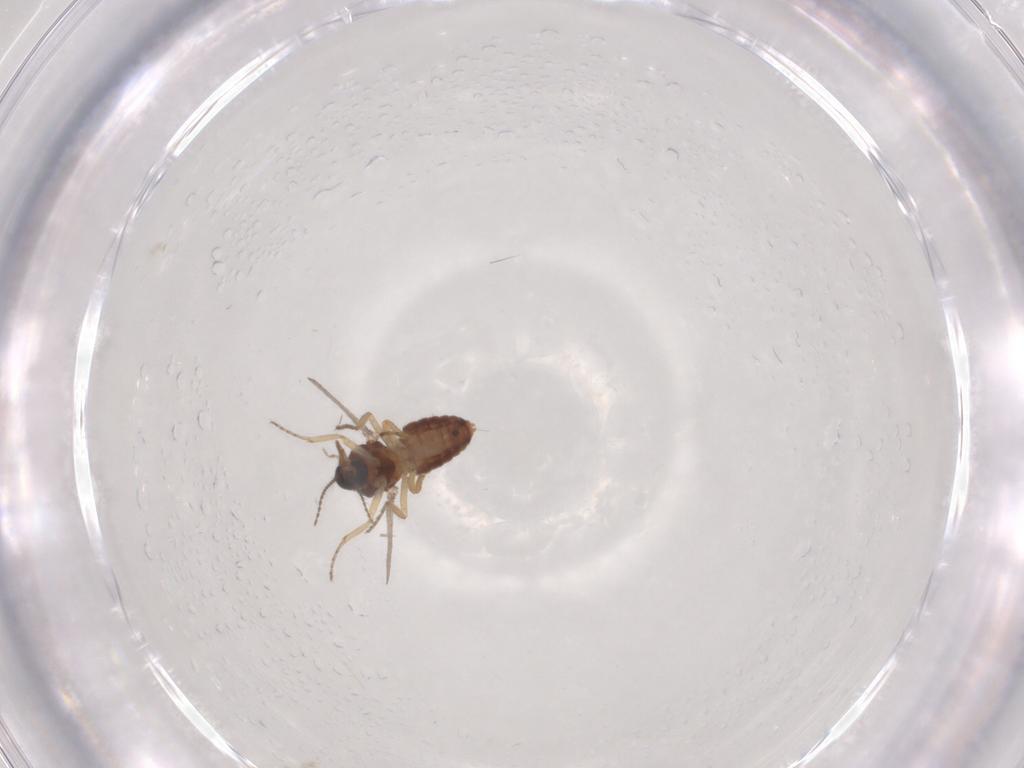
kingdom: Animalia
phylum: Arthropoda
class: Insecta
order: Diptera
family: Ceratopogonidae
